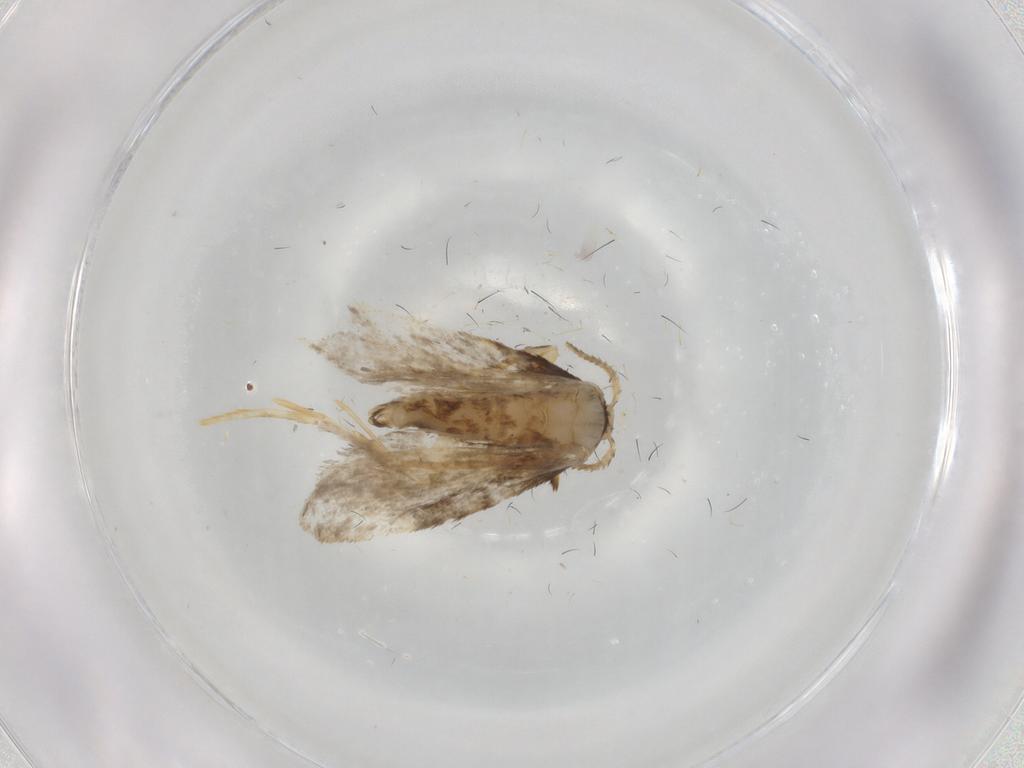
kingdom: Animalia
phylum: Arthropoda
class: Insecta
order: Lepidoptera
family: Psychidae
